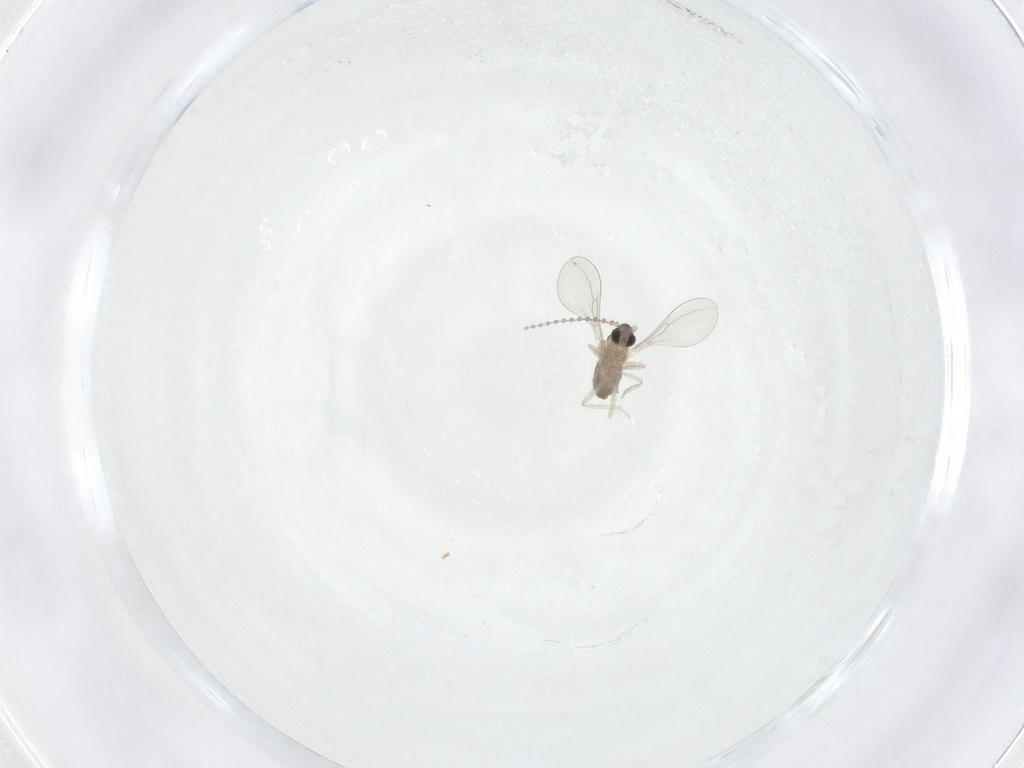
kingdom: Animalia
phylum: Arthropoda
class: Insecta
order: Diptera
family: Cecidomyiidae
